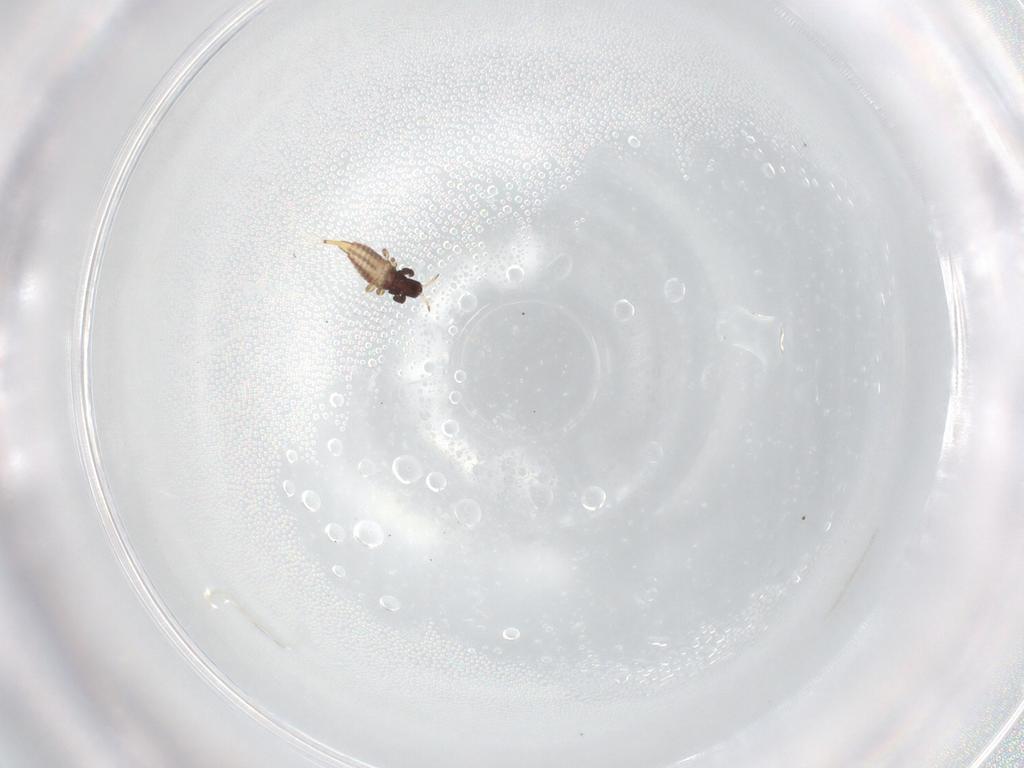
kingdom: Animalia
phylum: Arthropoda
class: Insecta
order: Thysanoptera
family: Phlaeothripidae
